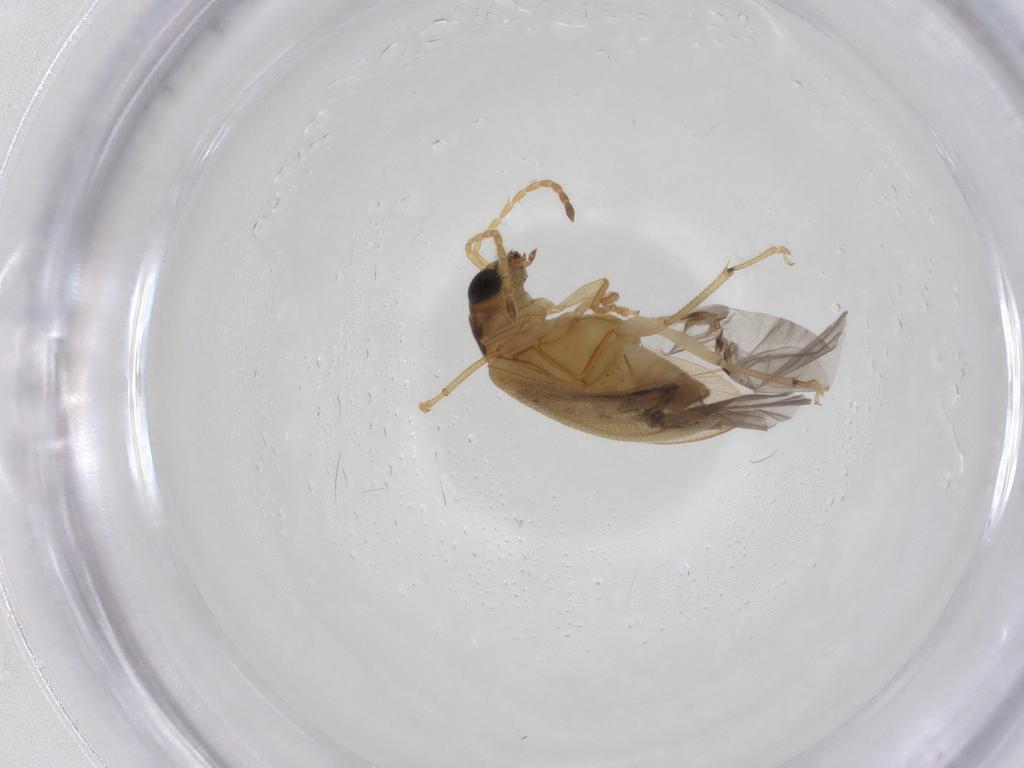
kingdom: Animalia
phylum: Arthropoda
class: Insecta
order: Coleoptera
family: Chrysomelidae
